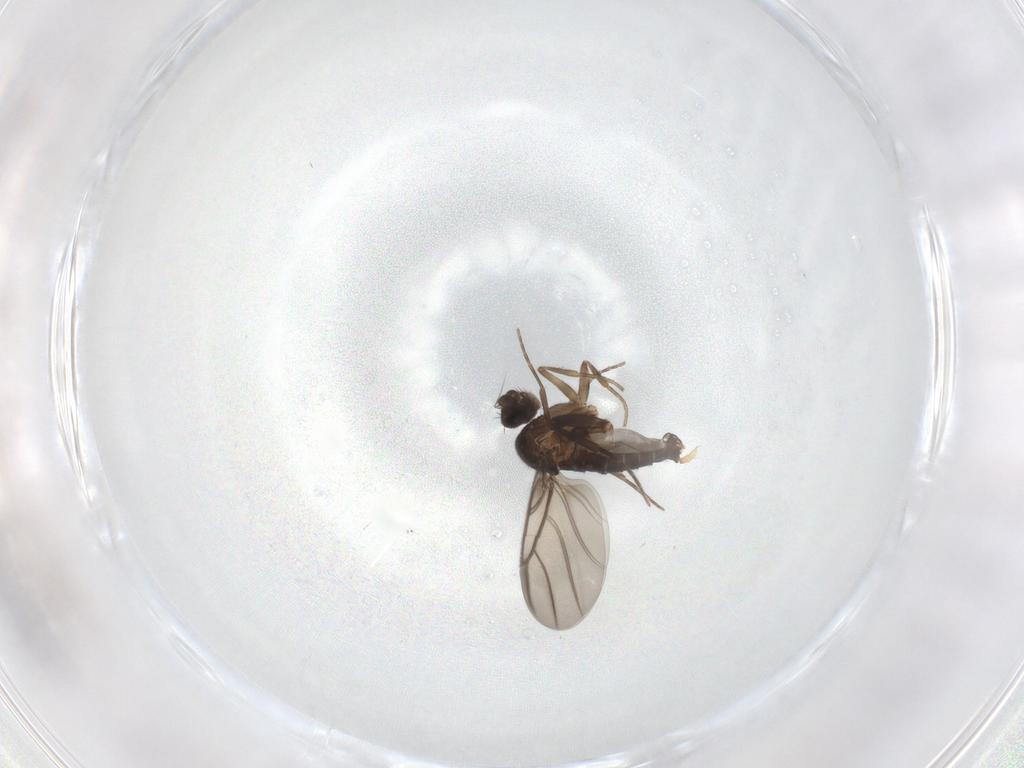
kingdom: Animalia
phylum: Arthropoda
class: Insecta
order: Diptera
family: Phoridae
